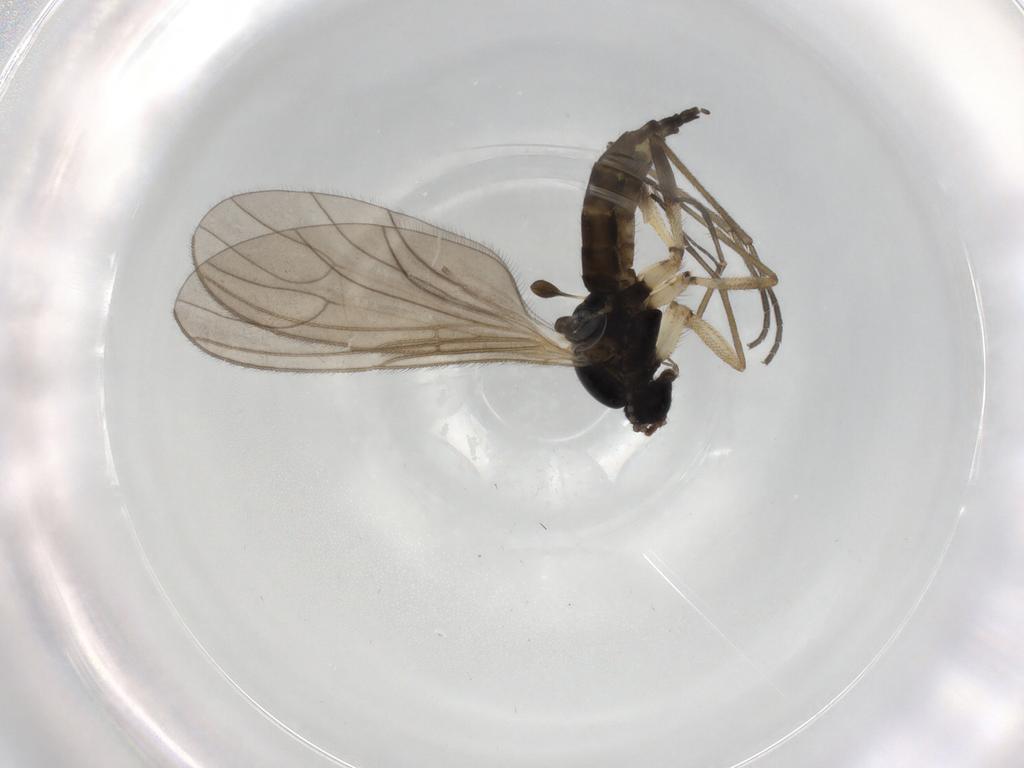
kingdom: Animalia
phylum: Arthropoda
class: Insecta
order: Diptera
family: Sciaridae
